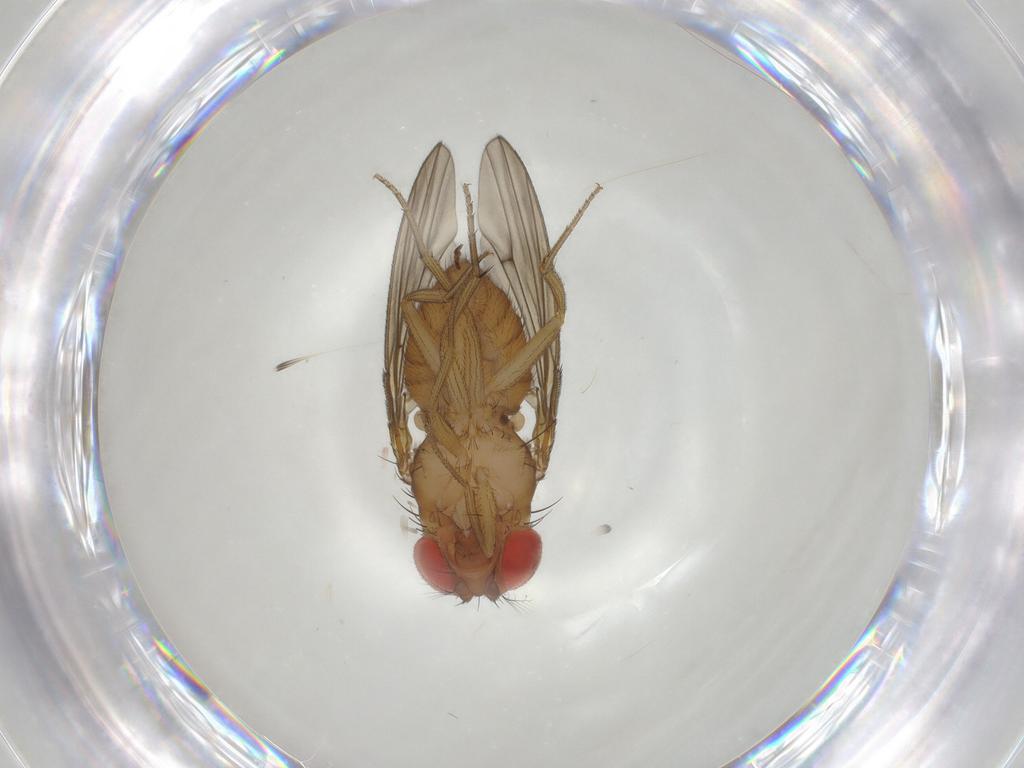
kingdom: Animalia
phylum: Arthropoda
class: Insecta
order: Diptera
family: Drosophilidae
